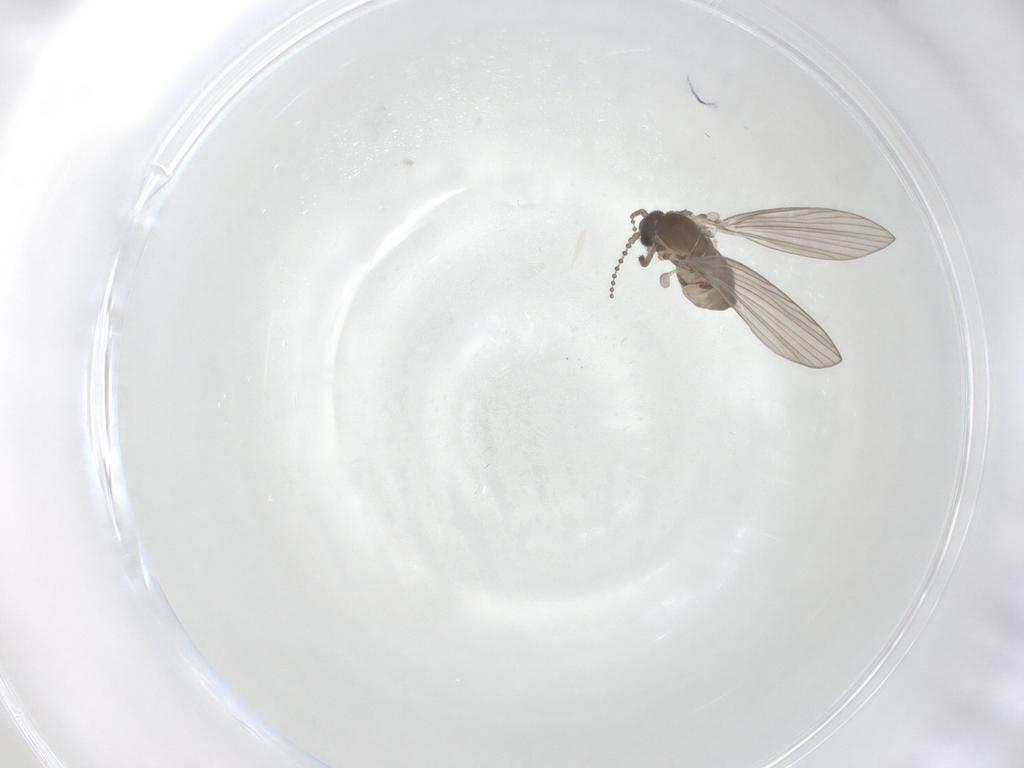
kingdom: Animalia
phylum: Arthropoda
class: Insecta
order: Diptera
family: Psychodidae
